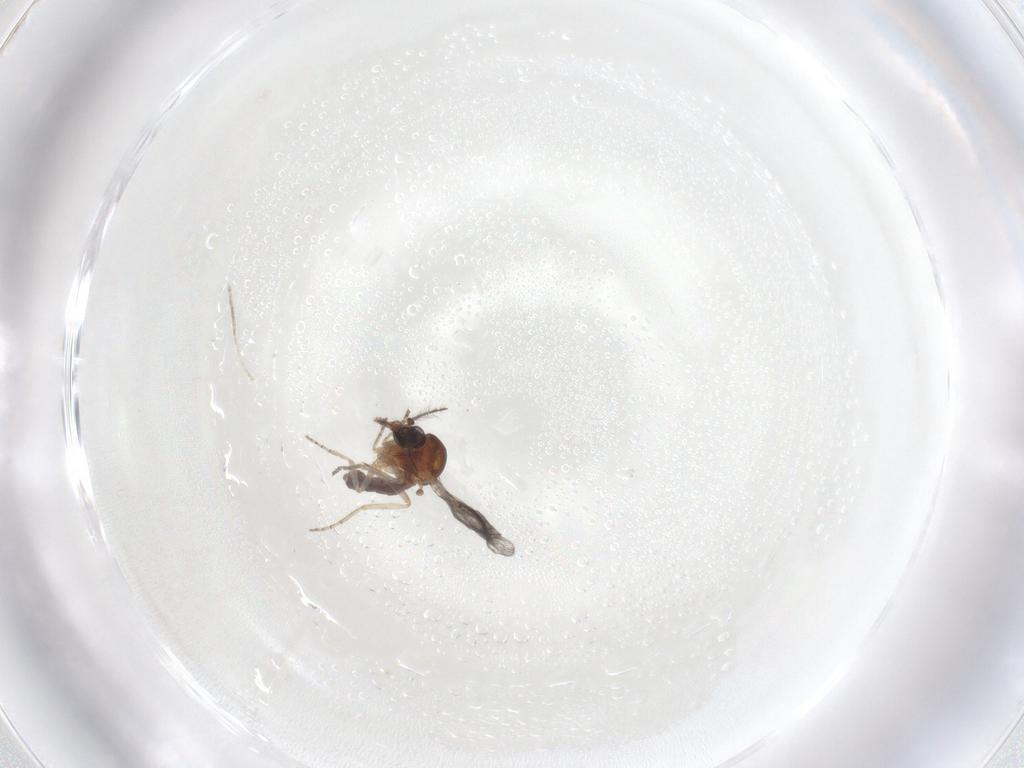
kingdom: Animalia
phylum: Arthropoda
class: Insecta
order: Diptera
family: Ceratopogonidae
